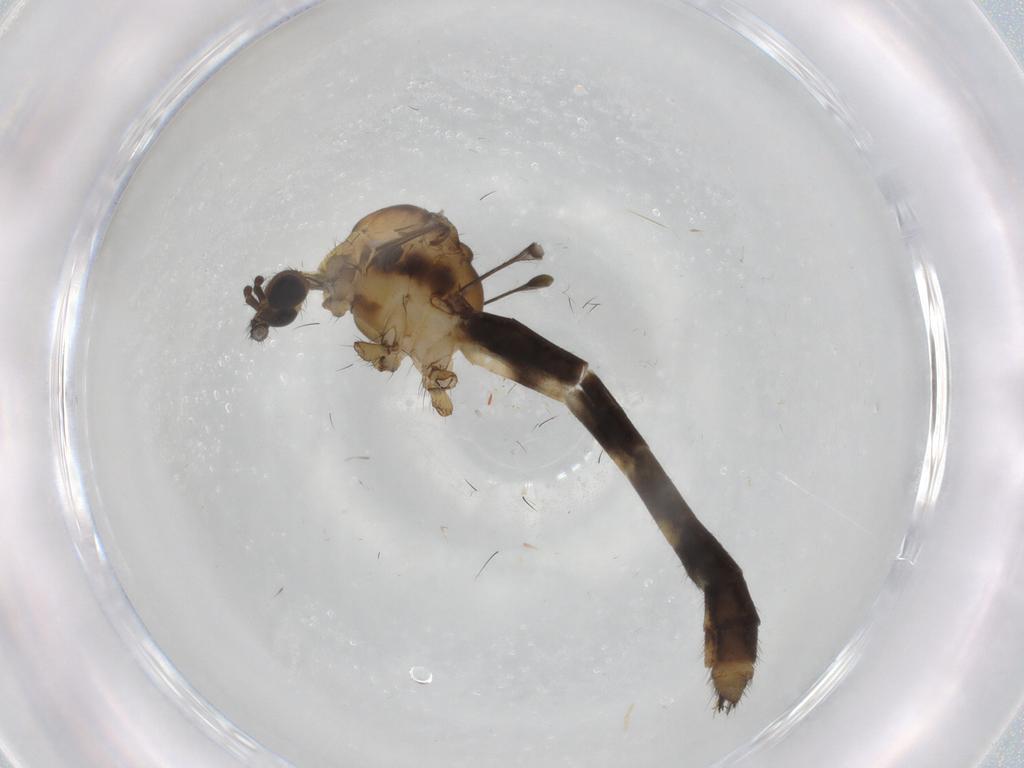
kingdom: Animalia
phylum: Arthropoda
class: Insecta
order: Diptera
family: Limoniidae
